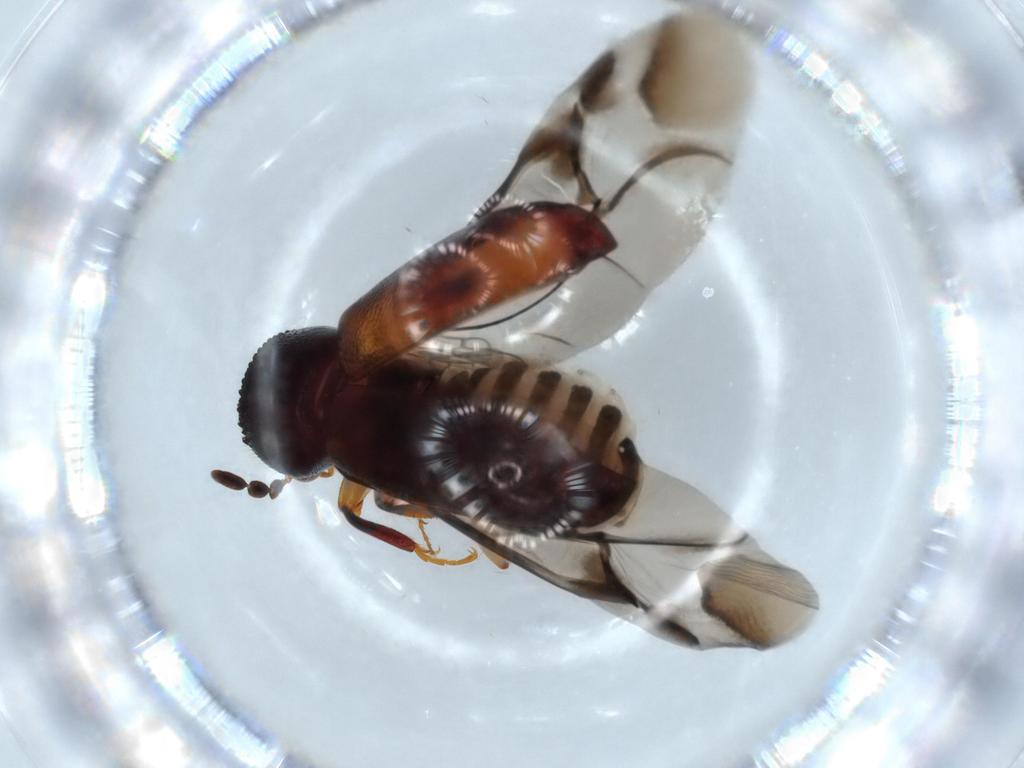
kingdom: Animalia
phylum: Arthropoda
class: Insecta
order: Coleoptera
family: Bostrichidae
